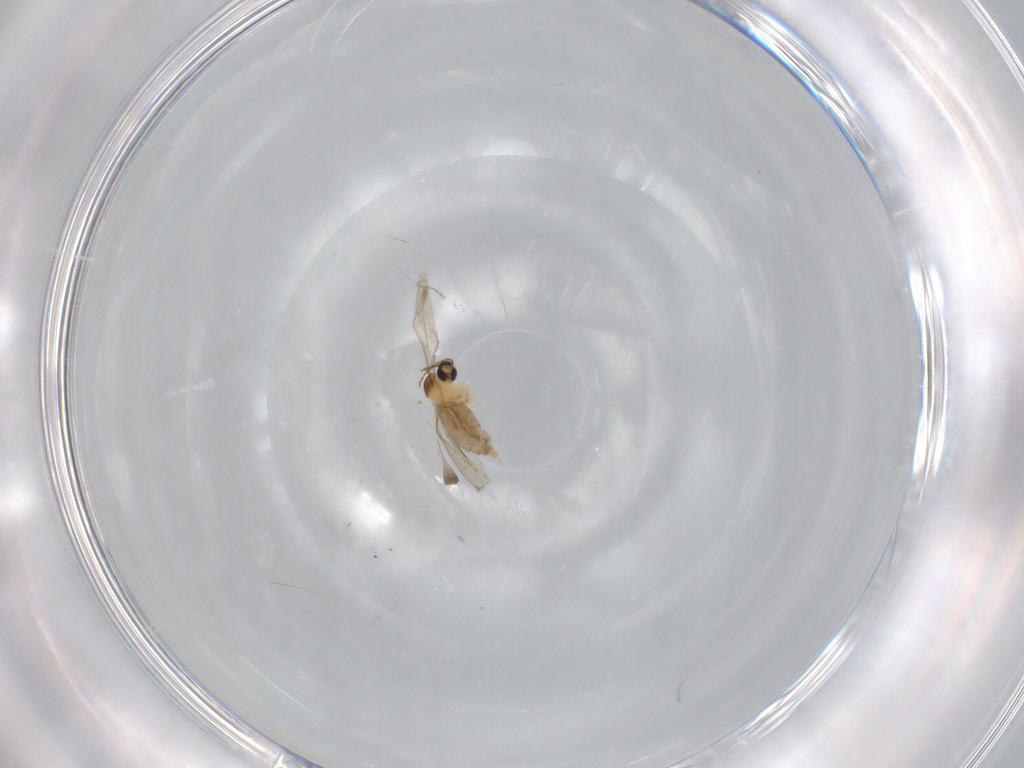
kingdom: Animalia
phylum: Arthropoda
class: Insecta
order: Diptera
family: Cecidomyiidae
